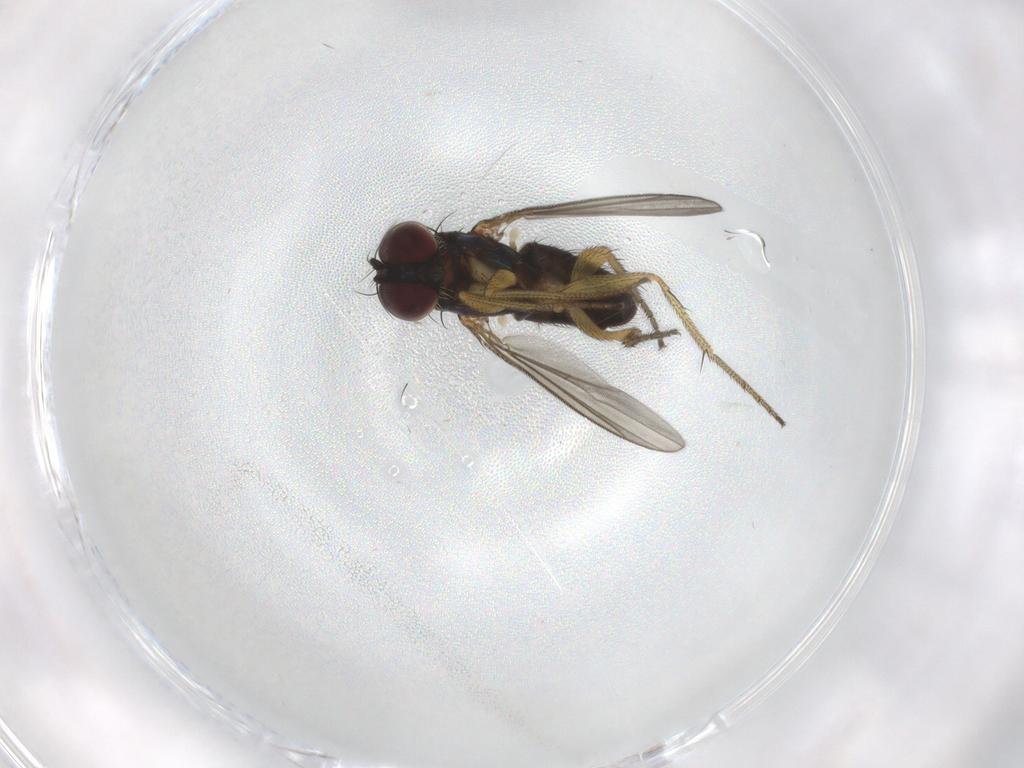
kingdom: Animalia
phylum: Arthropoda
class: Insecta
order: Diptera
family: Dolichopodidae
